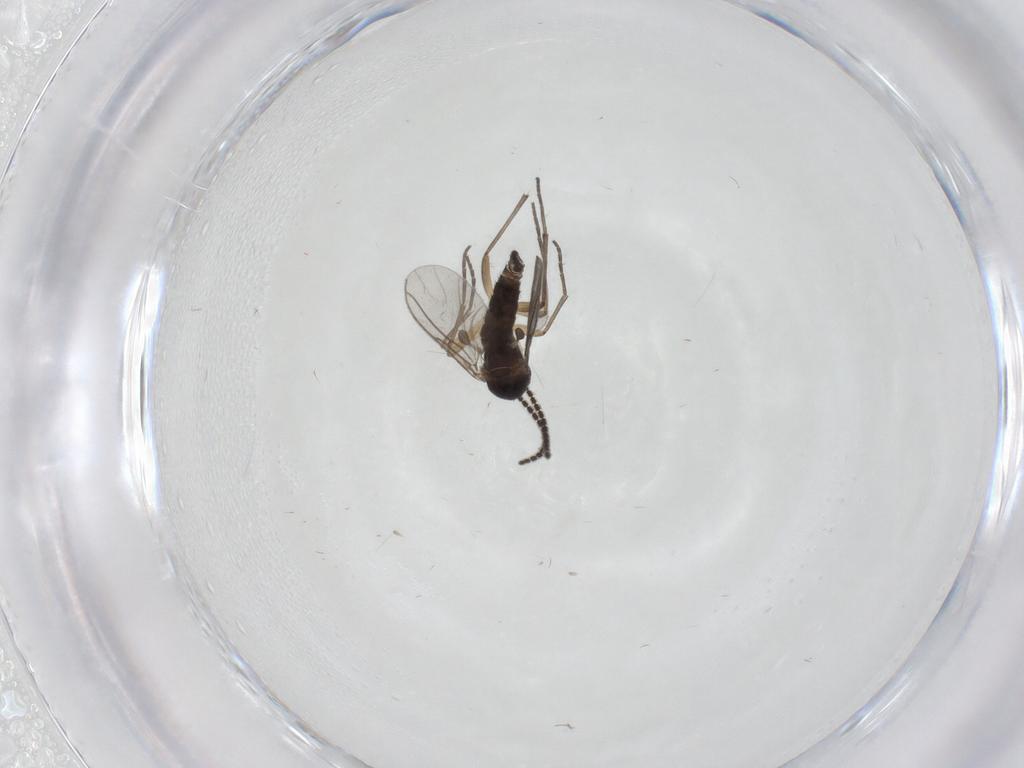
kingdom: Animalia
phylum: Arthropoda
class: Insecta
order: Diptera
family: Sciaridae
